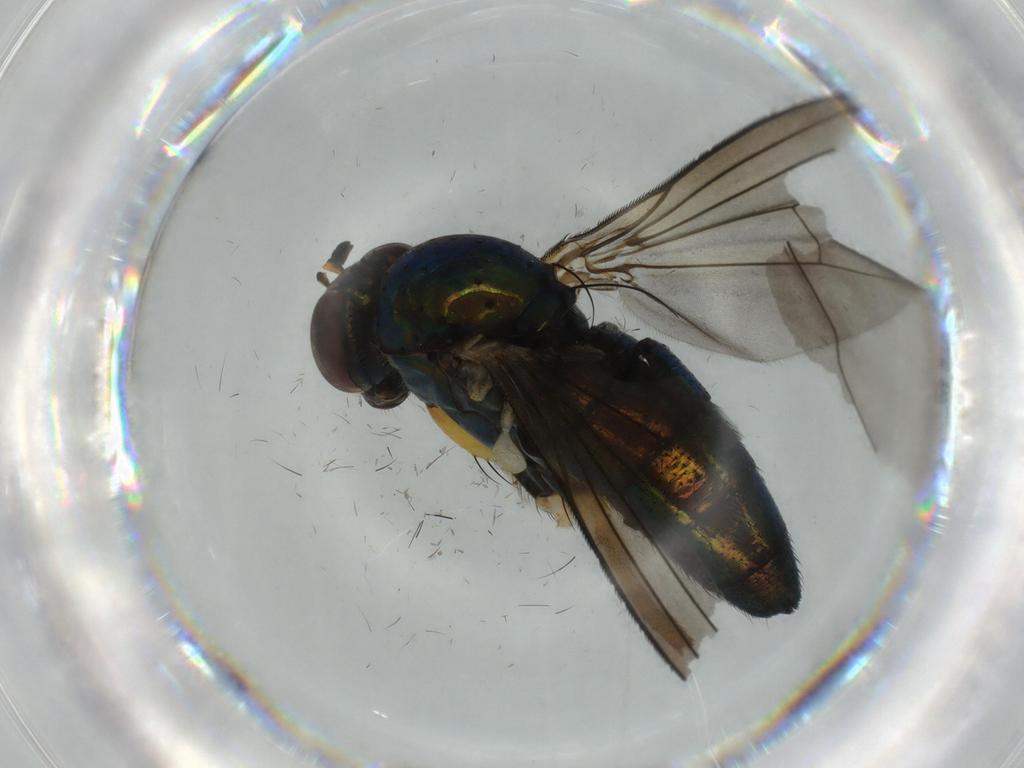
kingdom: Animalia
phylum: Arthropoda
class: Insecta
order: Diptera
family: Dolichopodidae
